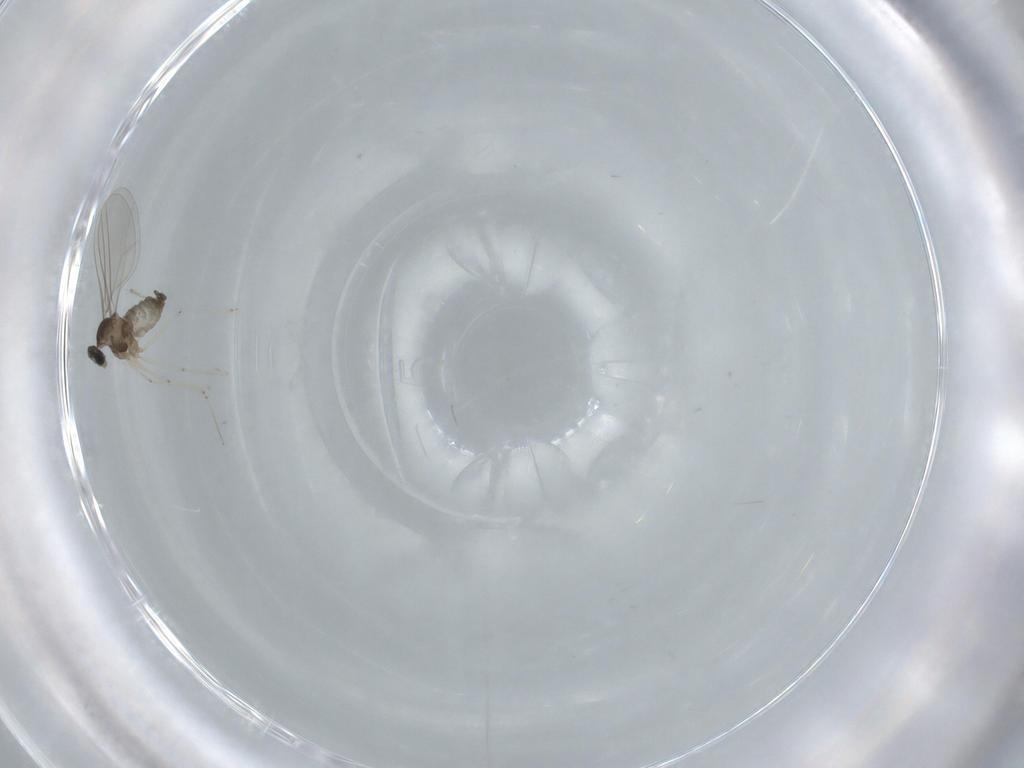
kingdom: Animalia
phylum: Arthropoda
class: Insecta
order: Diptera
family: Cecidomyiidae
